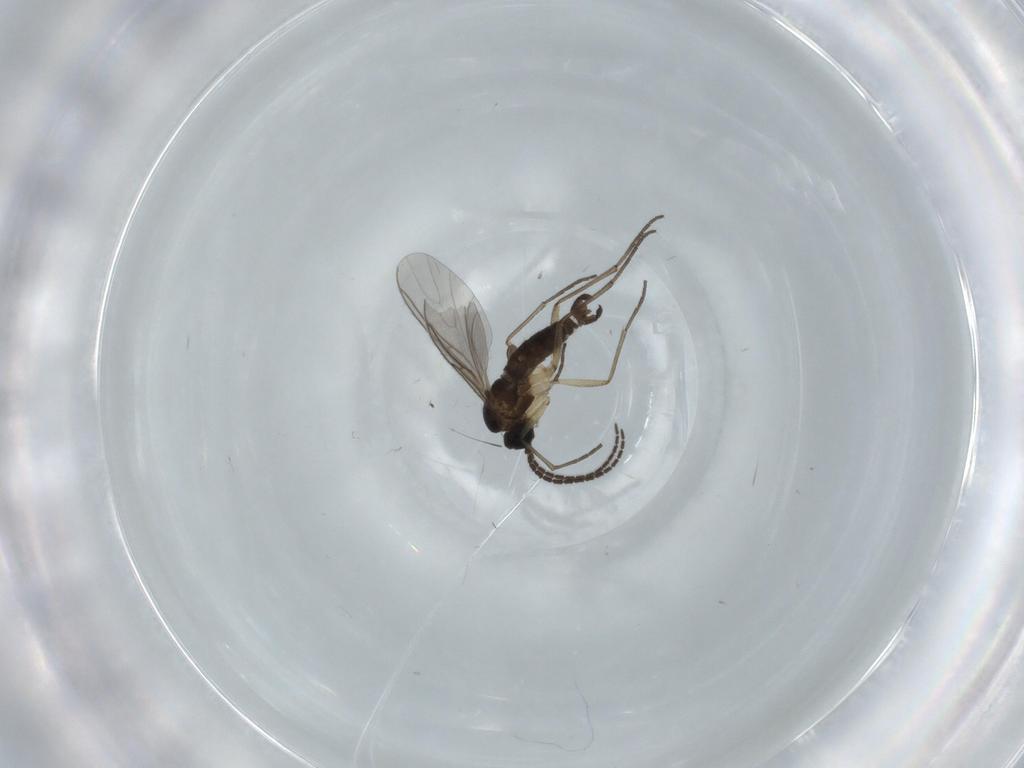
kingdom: Animalia
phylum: Arthropoda
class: Insecta
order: Diptera
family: Sciaridae
